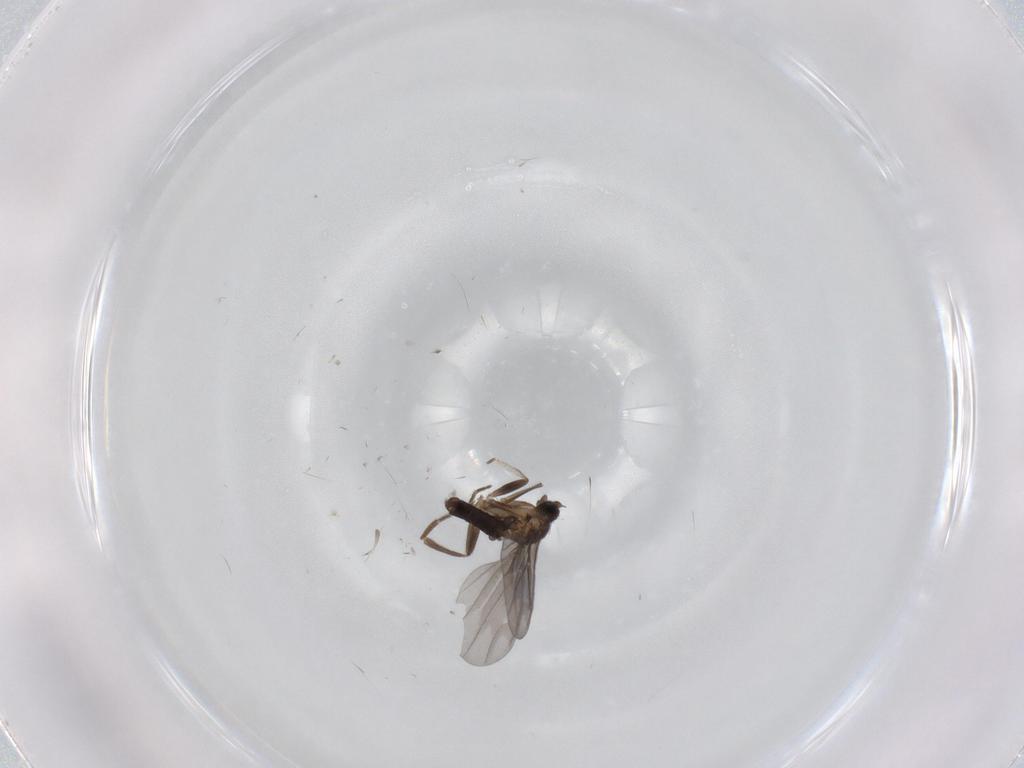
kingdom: Animalia
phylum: Arthropoda
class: Insecta
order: Diptera
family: Phoridae
